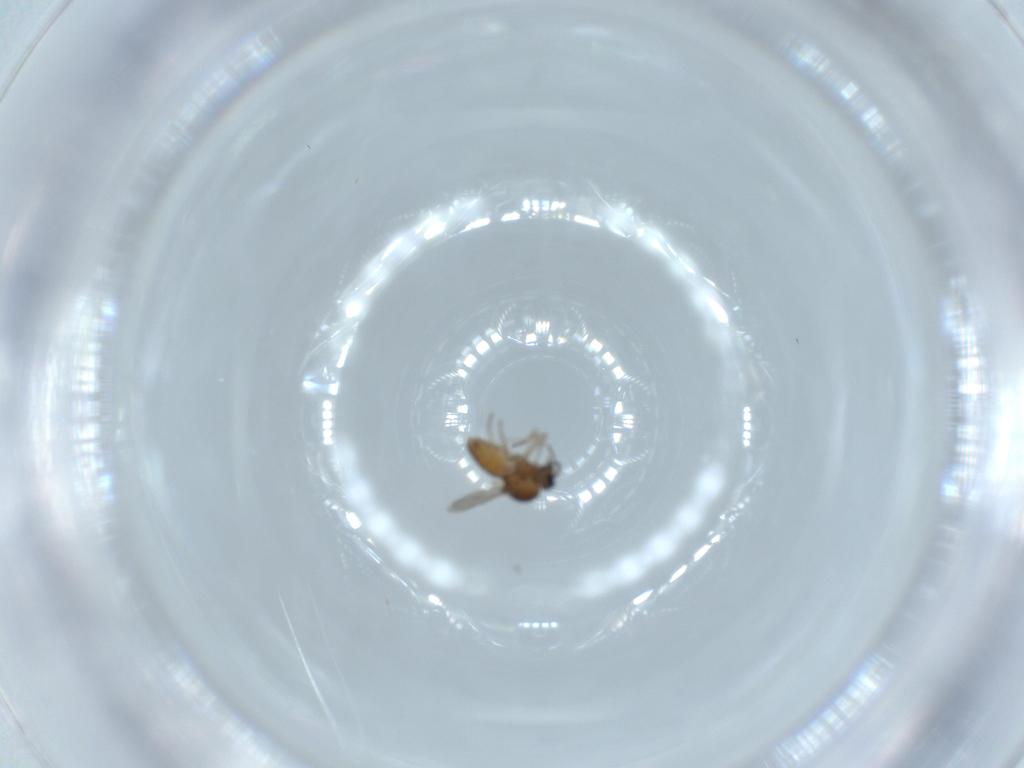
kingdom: Animalia
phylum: Arthropoda
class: Insecta
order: Diptera
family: Ceratopogonidae
